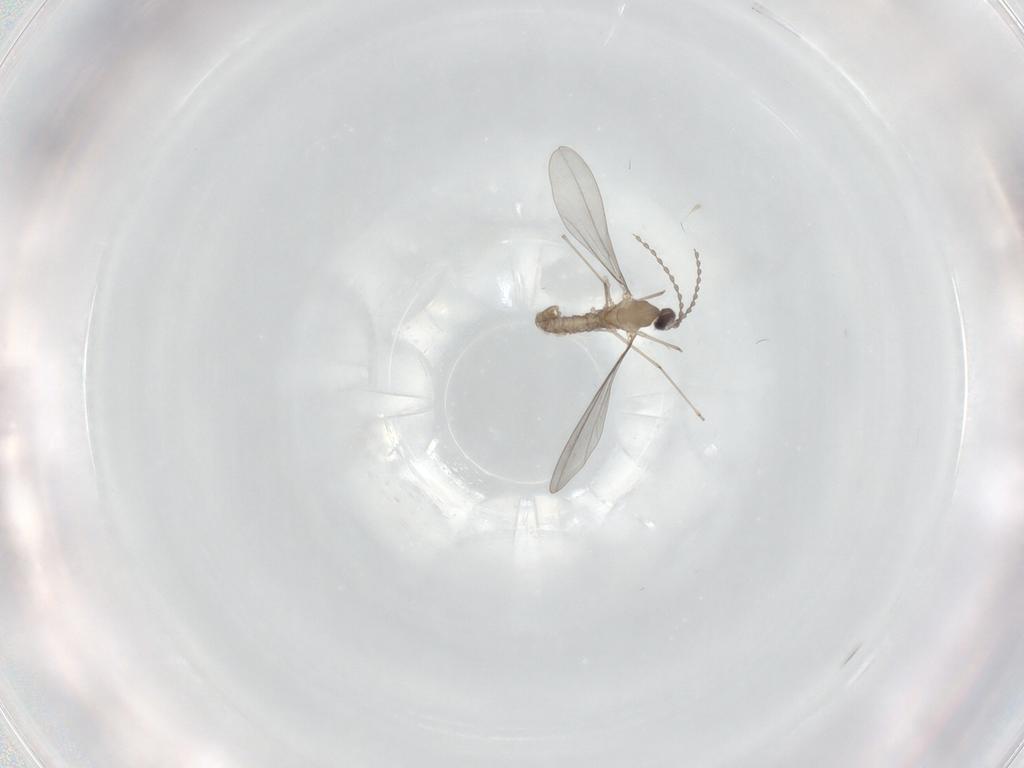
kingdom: Animalia
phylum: Arthropoda
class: Insecta
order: Diptera
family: Cecidomyiidae
